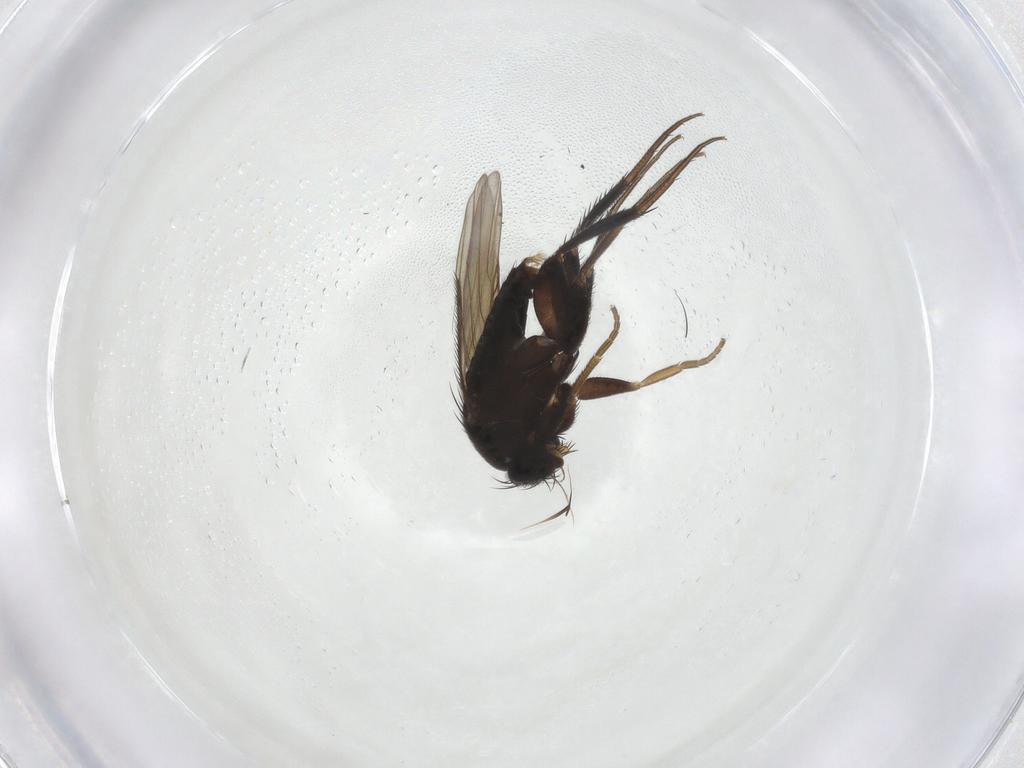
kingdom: Animalia
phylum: Arthropoda
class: Insecta
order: Diptera
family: Phoridae
